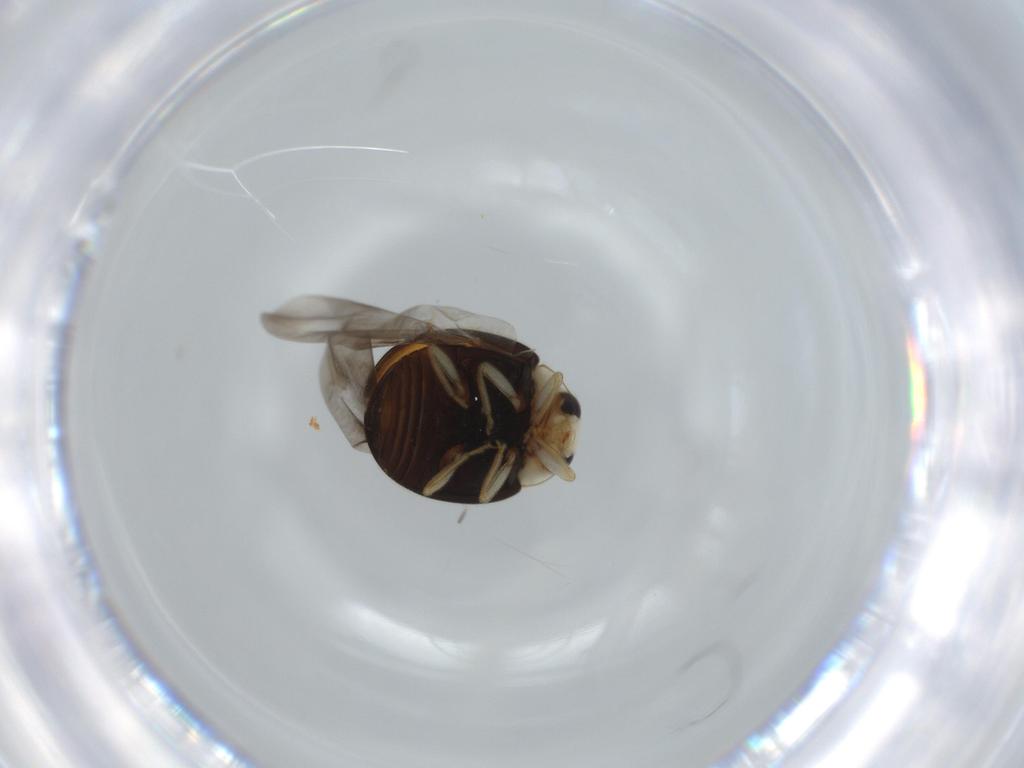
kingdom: Animalia
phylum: Arthropoda
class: Insecta
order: Coleoptera
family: Coccinellidae
